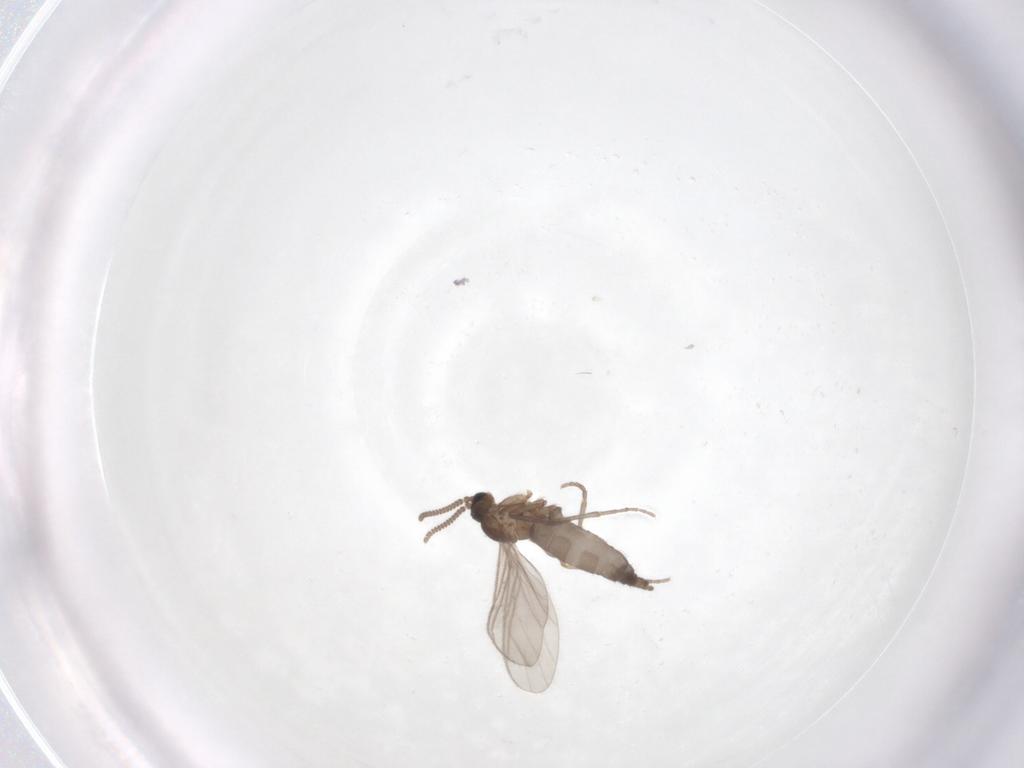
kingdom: Animalia
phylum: Arthropoda
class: Insecta
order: Diptera
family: Sciaridae
